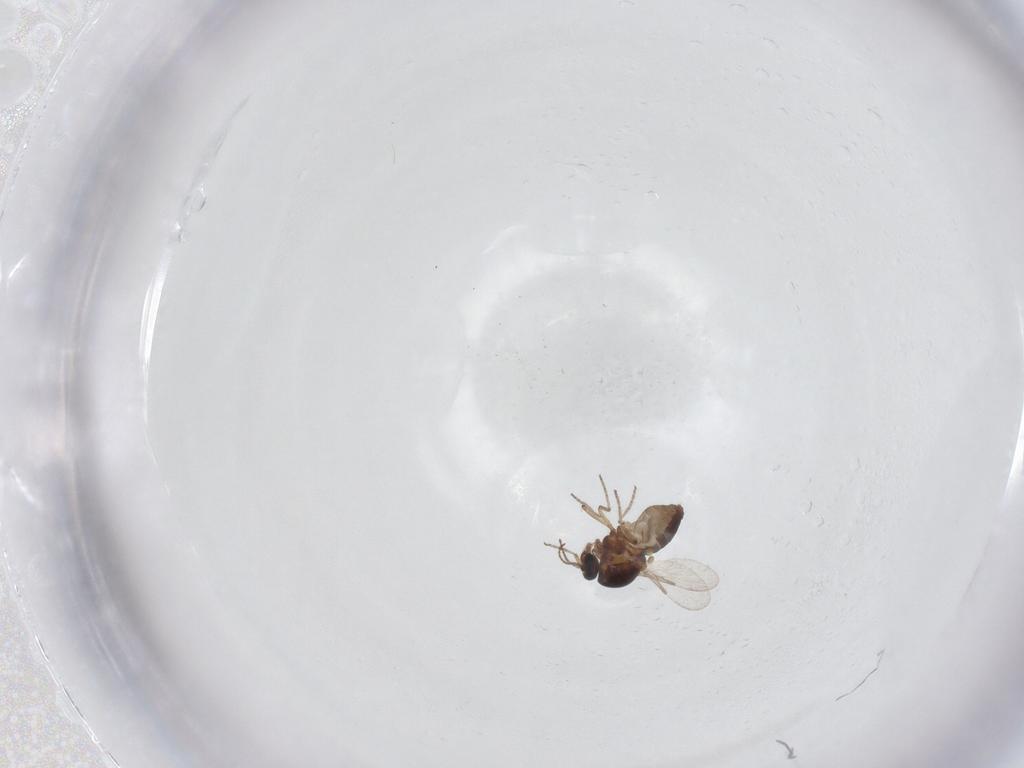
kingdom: Animalia
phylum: Arthropoda
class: Insecta
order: Diptera
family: Ceratopogonidae
